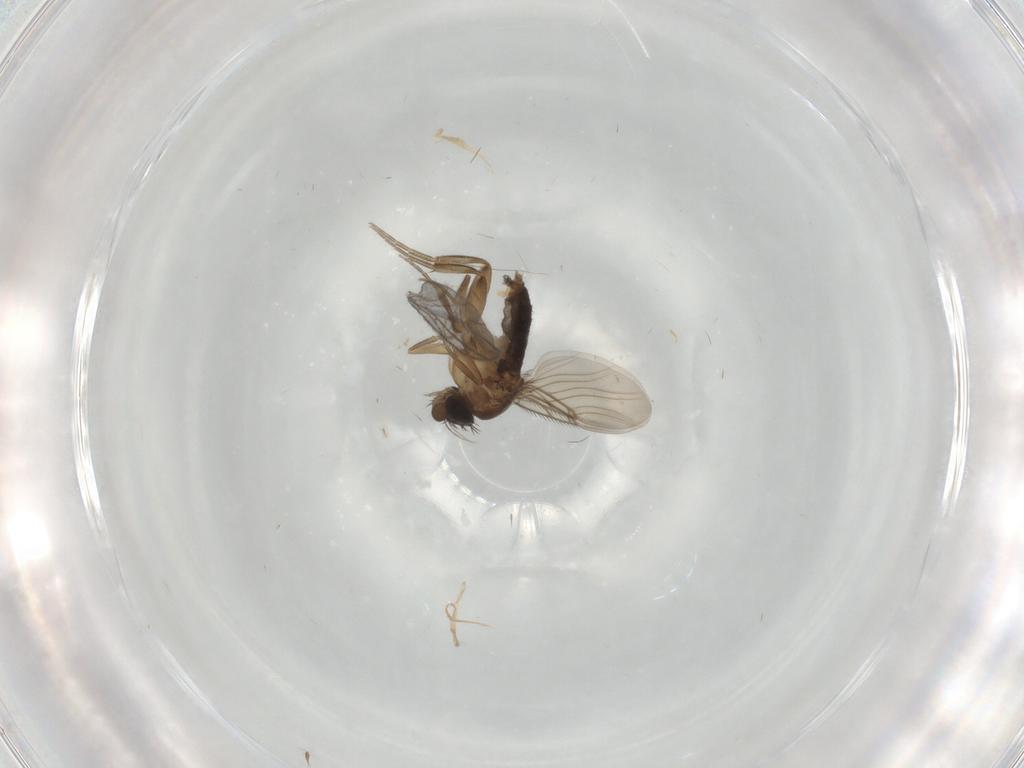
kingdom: Animalia
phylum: Arthropoda
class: Insecta
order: Diptera
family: Phoridae
